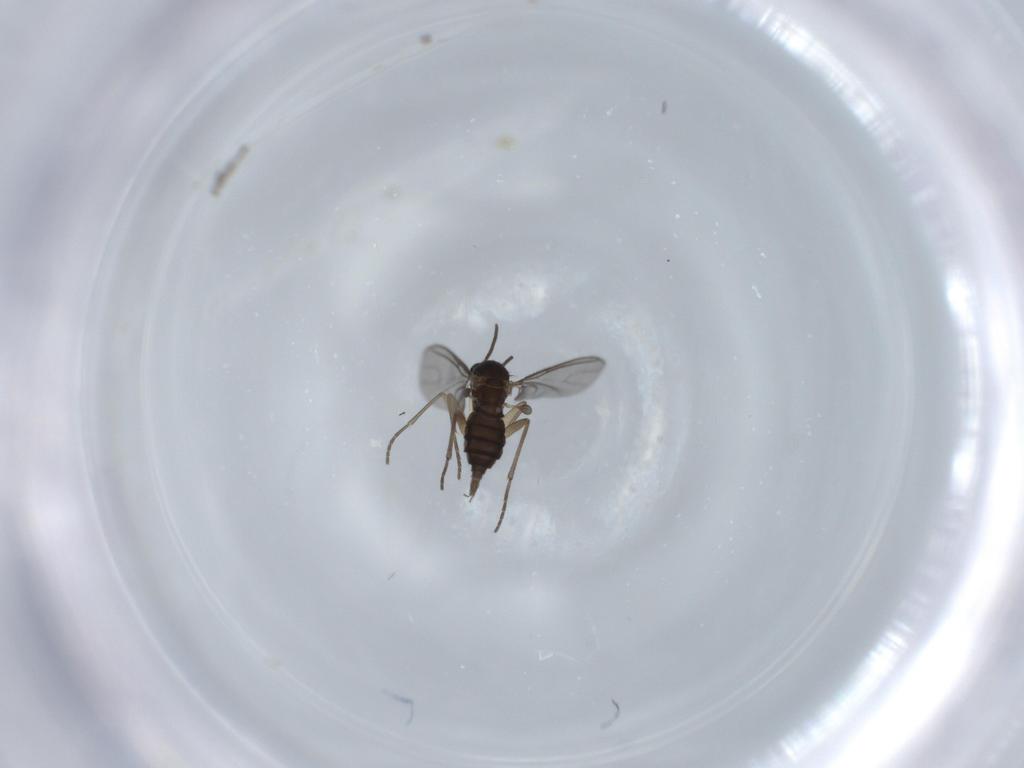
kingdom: Animalia
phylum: Arthropoda
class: Insecta
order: Diptera
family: Sciaridae
